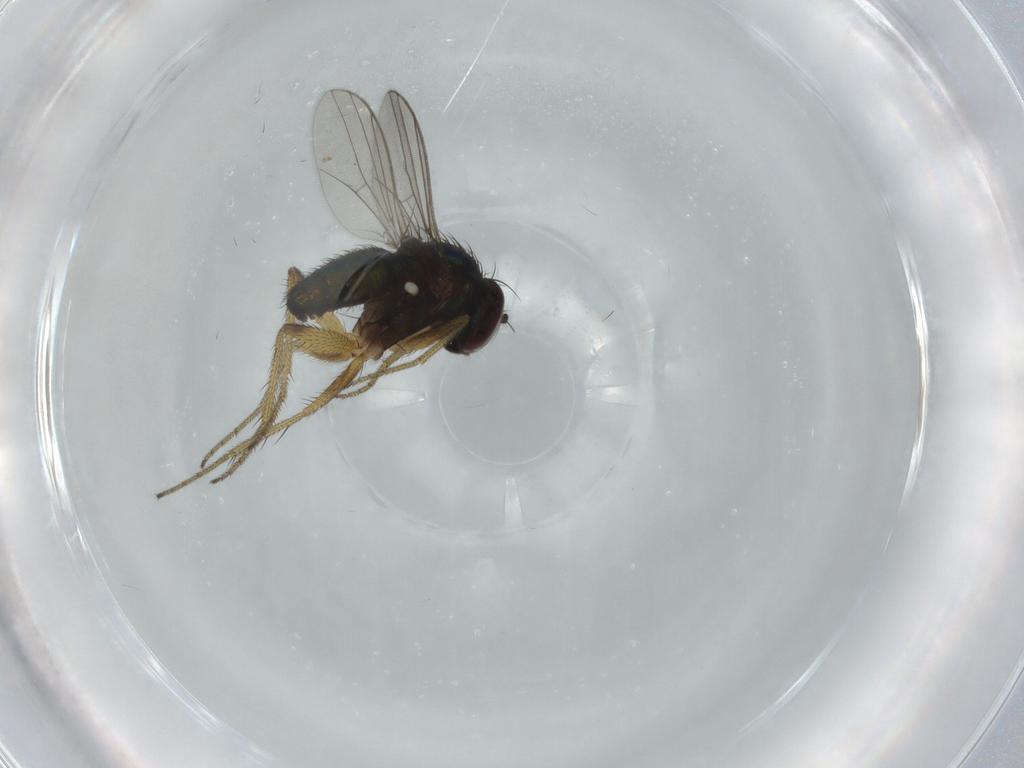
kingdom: Animalia
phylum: Arthropoda
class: Insecta
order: Diptera
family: Dolichopodidae
